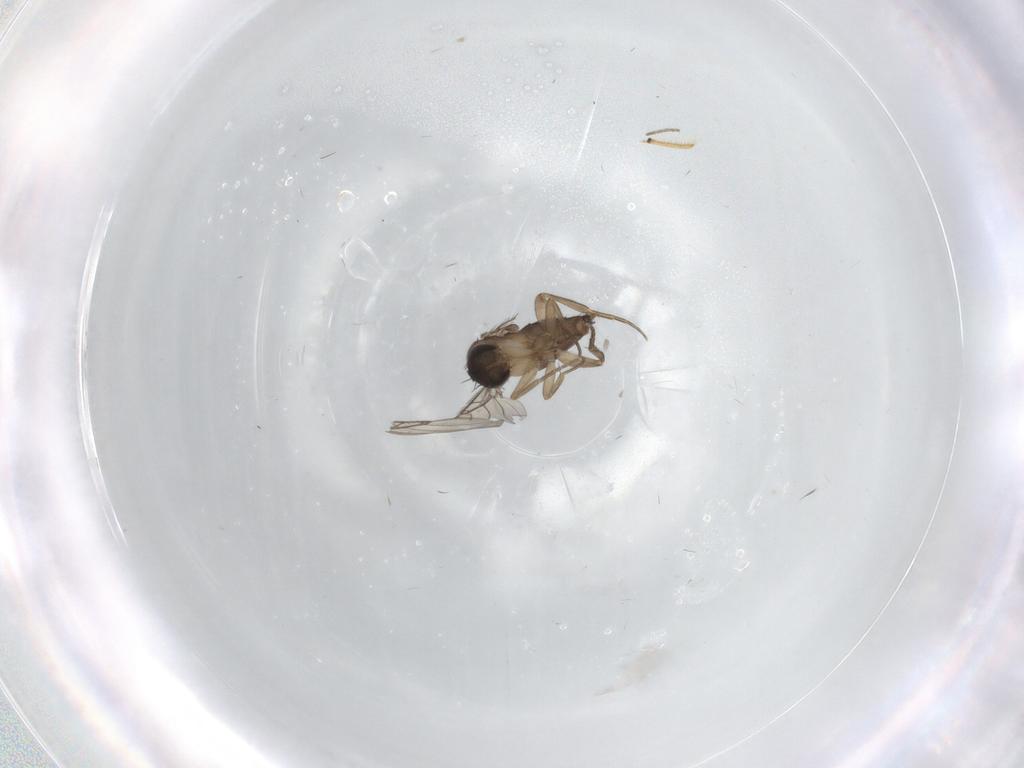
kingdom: Animalia
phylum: Arthropoda
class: Insecta
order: Diptera
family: Phoridae
